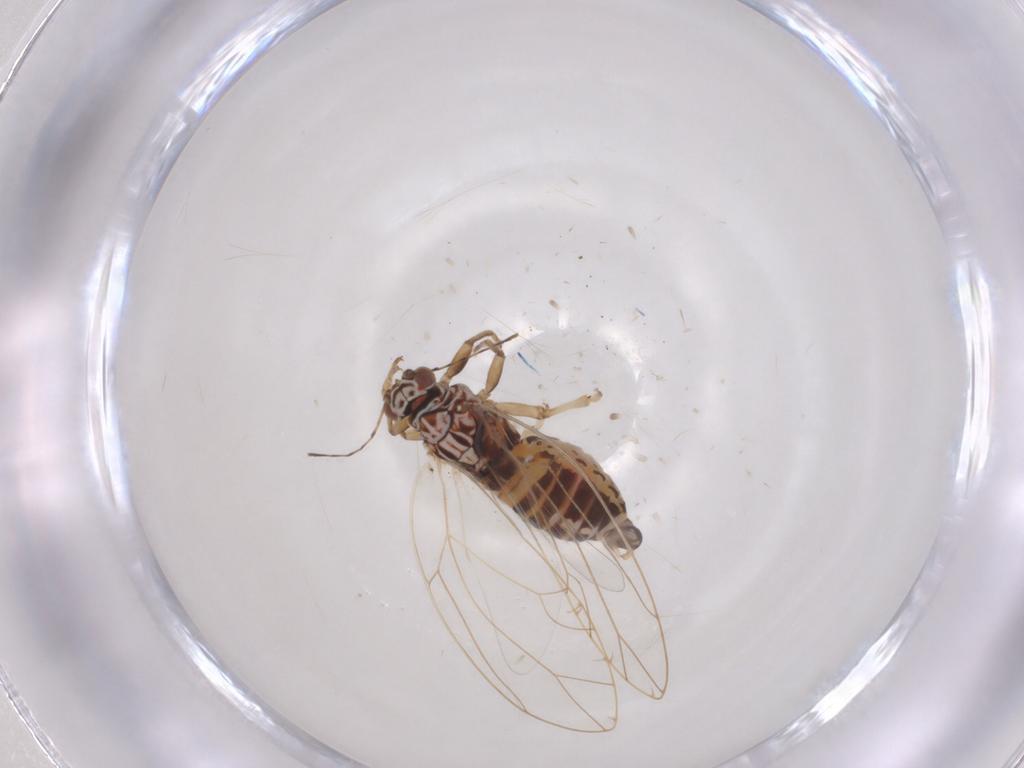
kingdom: Animalia
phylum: Arthropoda
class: Insecta
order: Hemiptera
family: Triozidae
